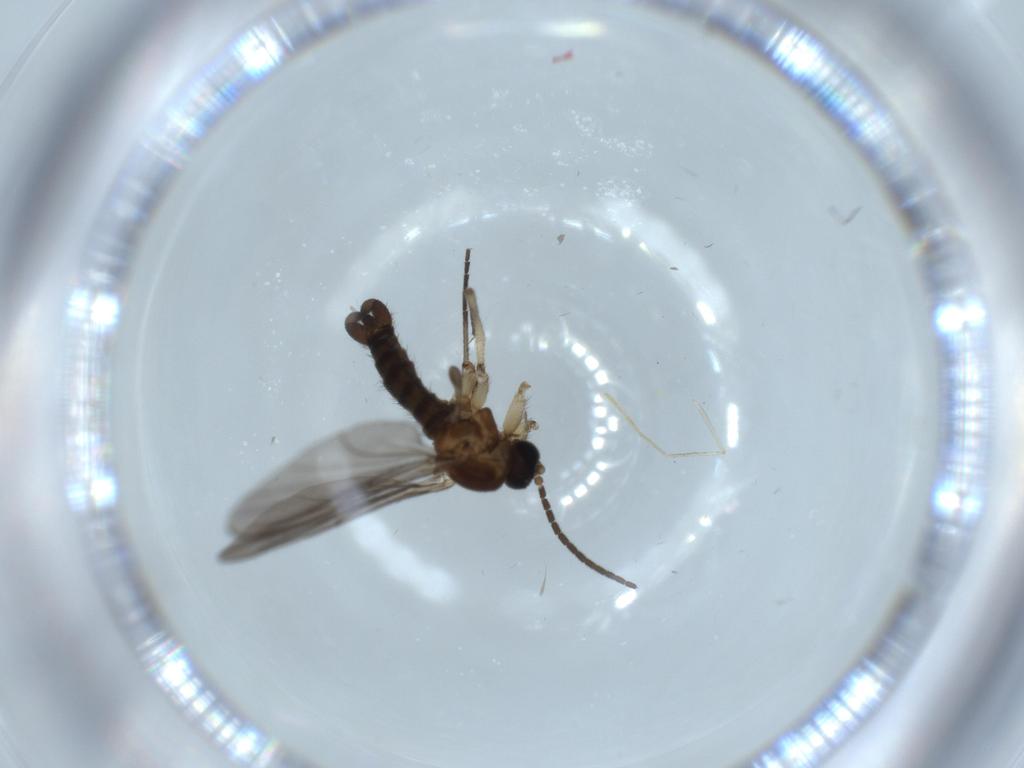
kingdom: Animalia
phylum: Arthropoda
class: Insecta
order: Diptera
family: Sciaridae
